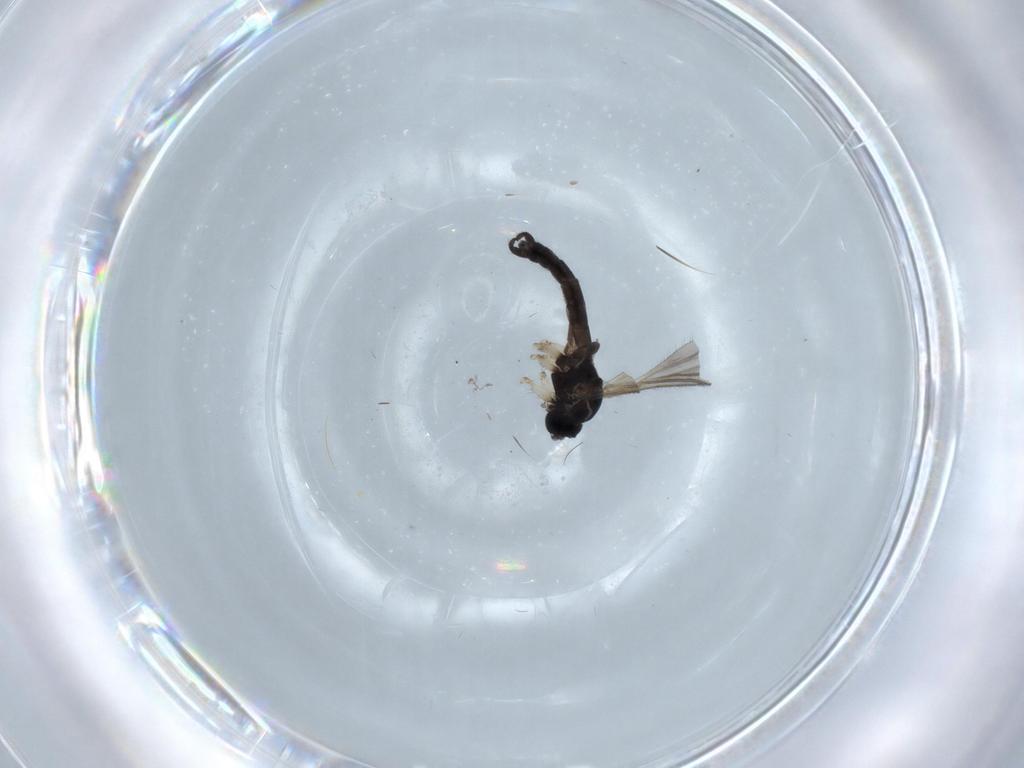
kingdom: Animalia
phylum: Arthropoda
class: Insecta
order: Diptera
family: Sciaridae
